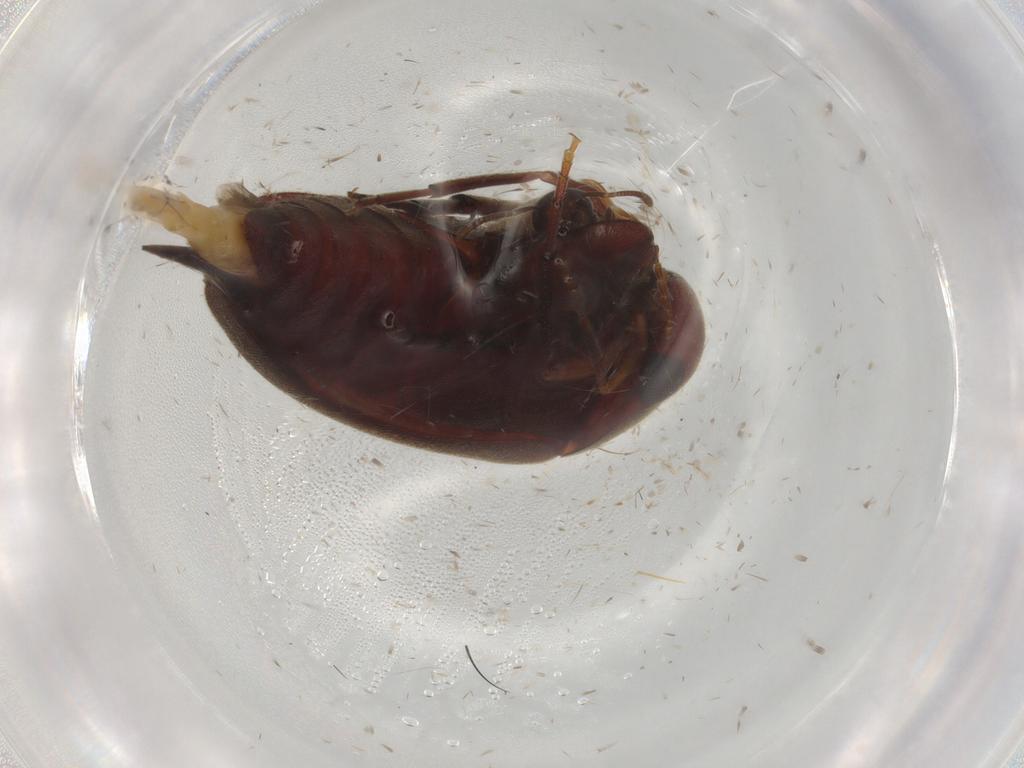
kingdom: Animalia
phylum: Arthropoda
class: Insecta
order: Coleoptera
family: Mordellidae
